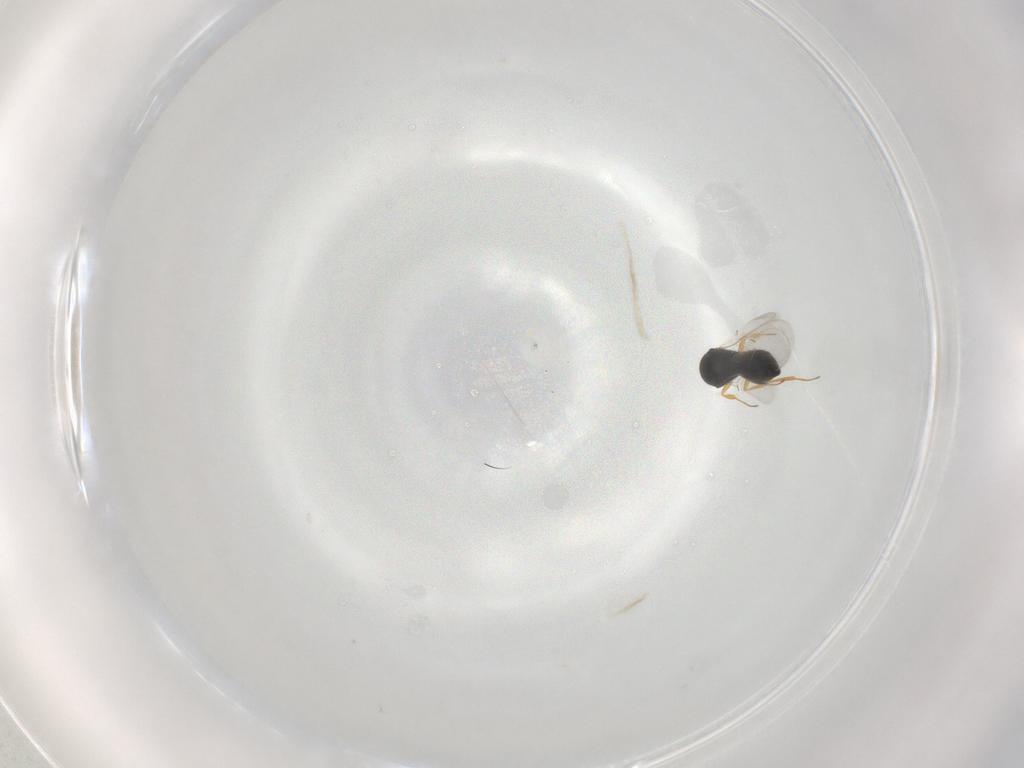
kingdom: Animalia
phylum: Arthropoda
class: Insecta
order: Hymenoptera
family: Scelionidae
